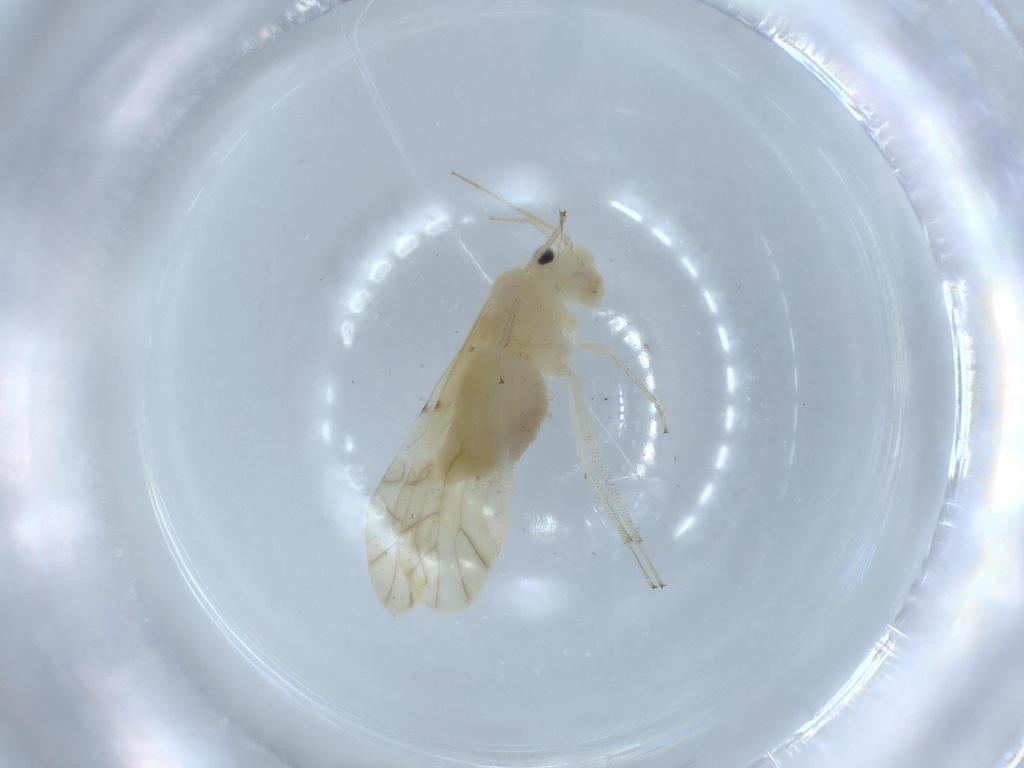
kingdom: Animalia
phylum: Arthropoda
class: Insecta
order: Psocodea
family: Caeciliusidae
